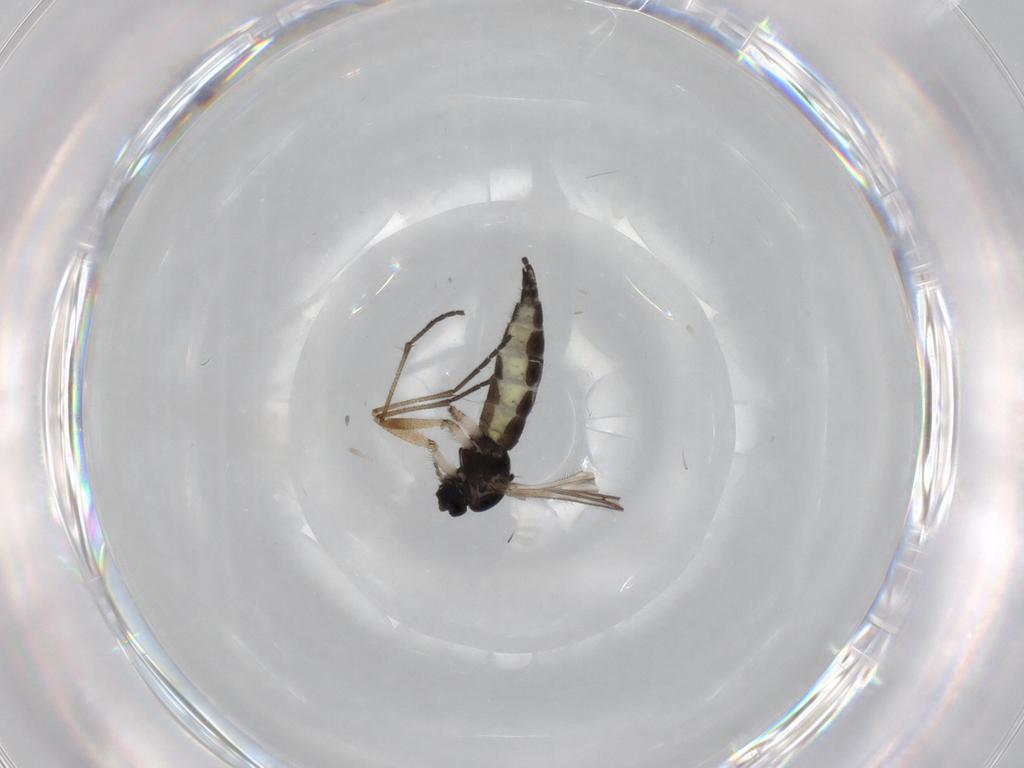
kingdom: Animalia
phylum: Arthropoda
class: Insecta
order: Diptera
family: Sciaridae
